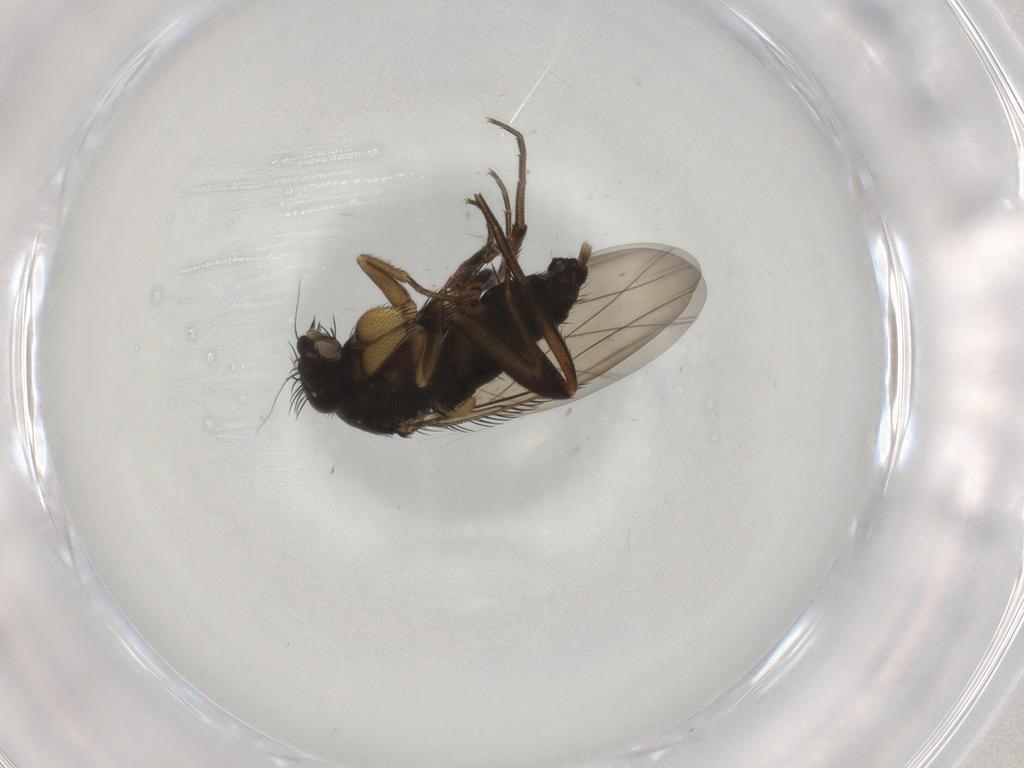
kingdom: Animalia
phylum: Arthropoda
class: Insecta
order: Diptera
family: Phoridae
